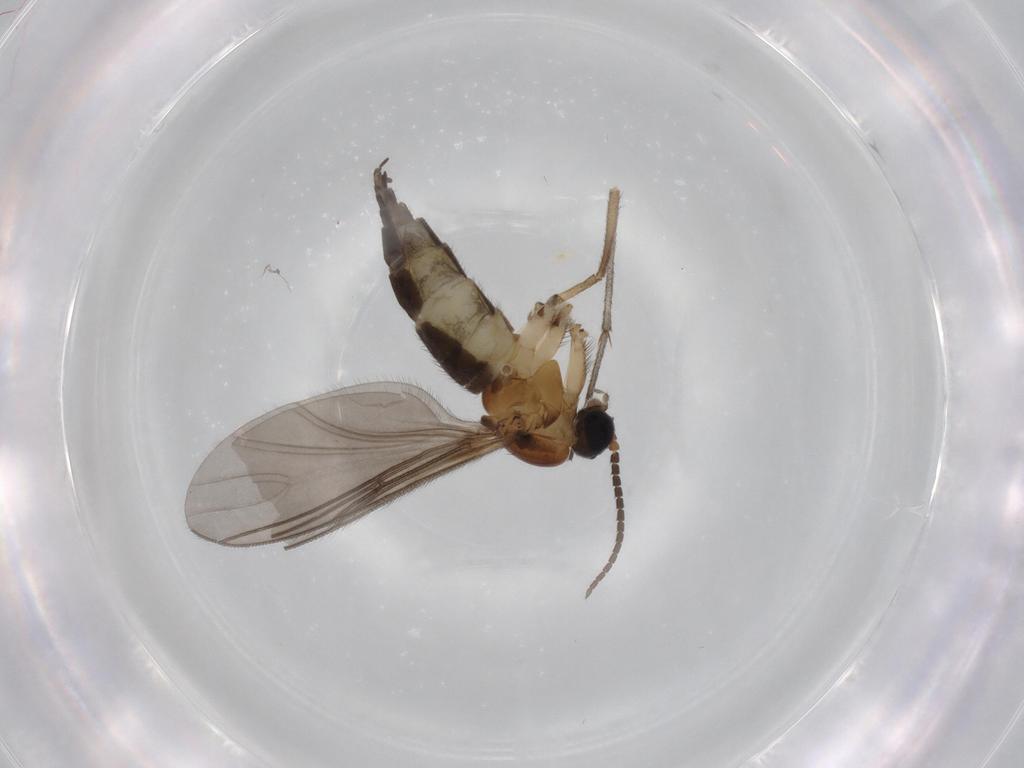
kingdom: Animalia
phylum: Arthropoda
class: Insecta
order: Diptera
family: Sciaridae
